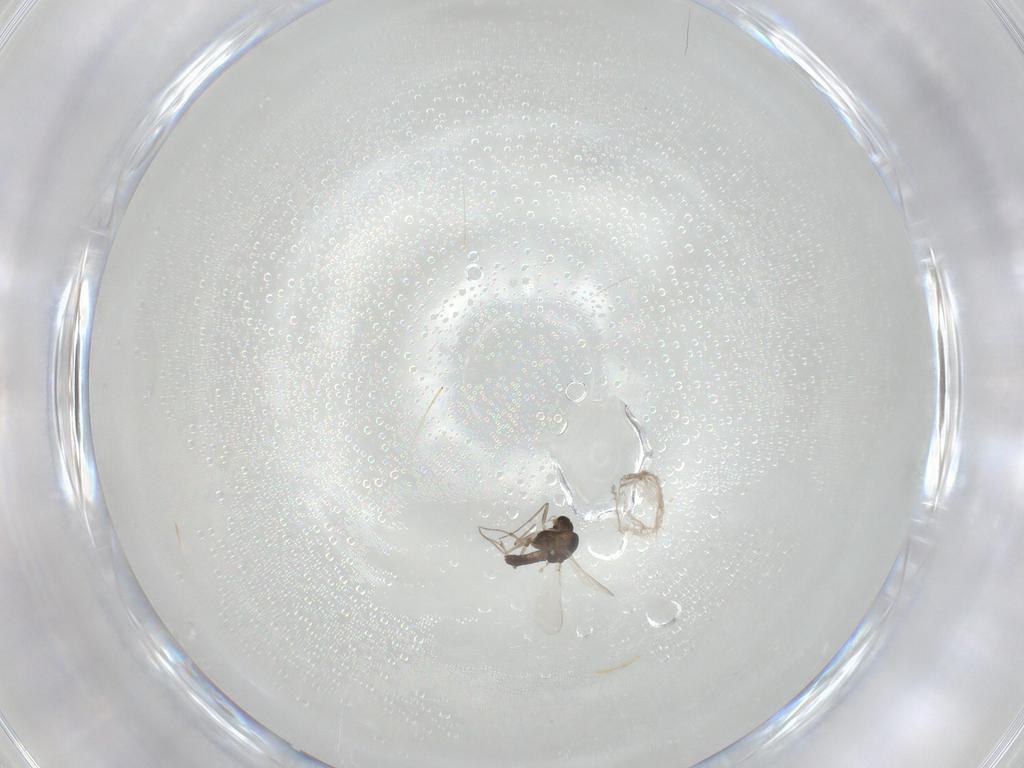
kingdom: Animalia
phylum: Arthropoda
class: Insecta
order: Diptera
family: Chironomidae
